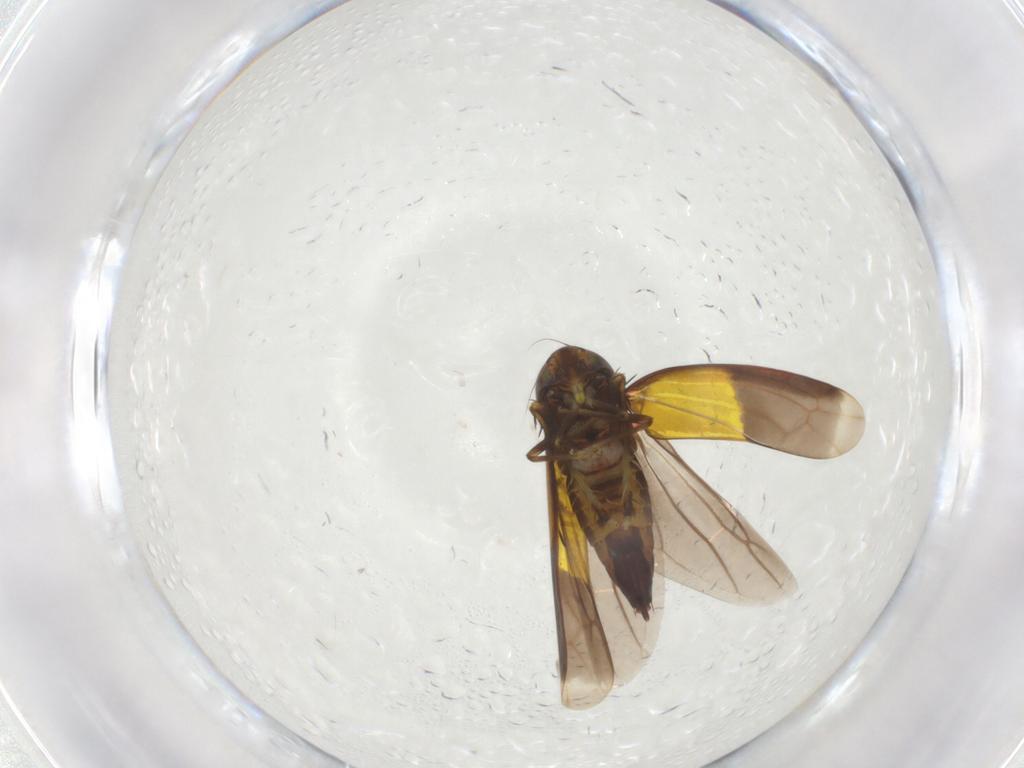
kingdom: Animalia
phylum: Arthropoda
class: Insecta
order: Hemiptera
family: Cicadellidae
